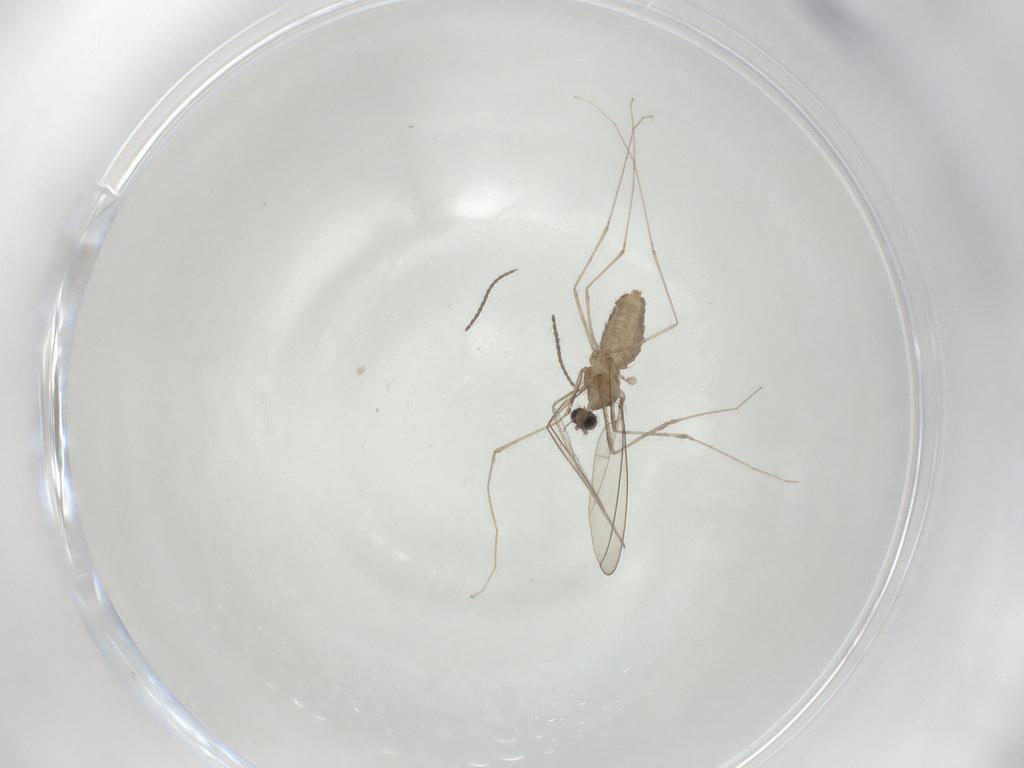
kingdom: Animalia
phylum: Arthropoda
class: Insecta
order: Diptera
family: Cecidomyiidae
